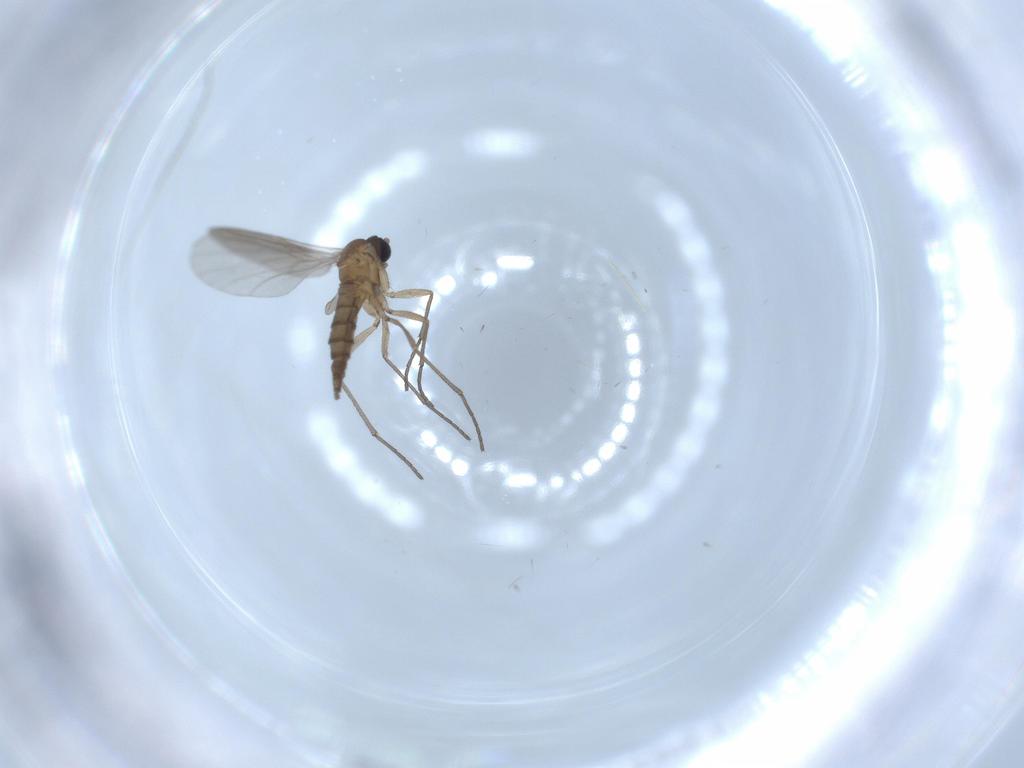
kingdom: Animalia
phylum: Arthropoda
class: Insecta
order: Diptera
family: Sciaridae
